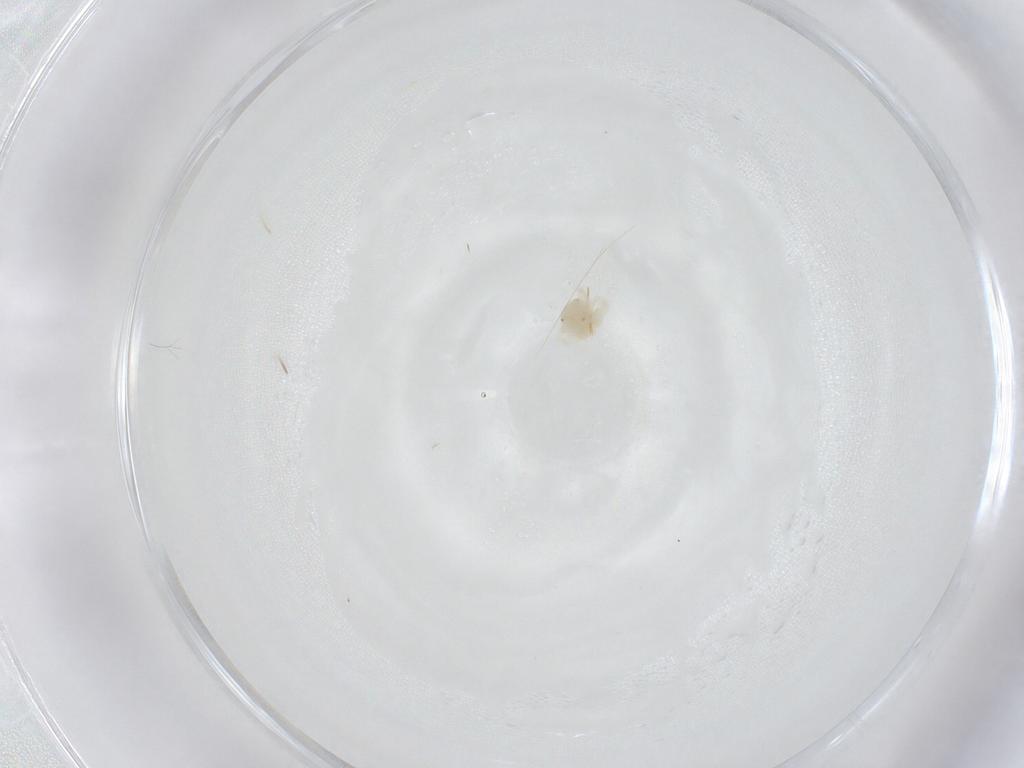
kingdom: Animalia
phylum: Arthropoda
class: Arachnida
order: Trombidiformes
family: Anystidae
